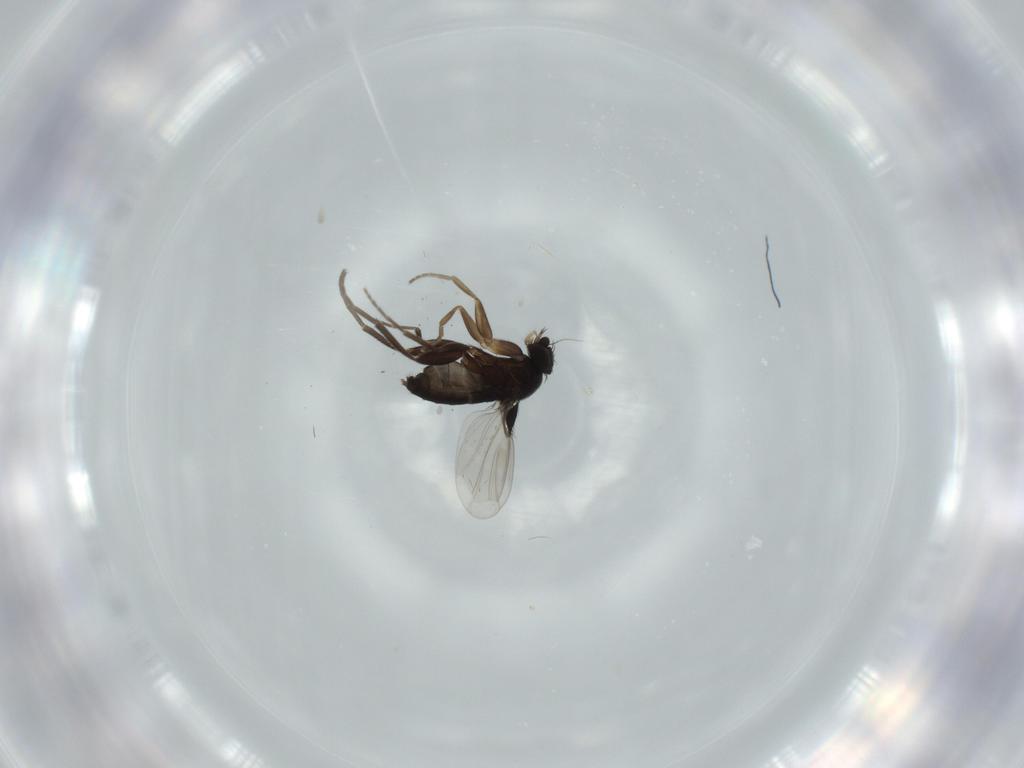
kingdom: Animalia
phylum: Arthropoda
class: Insecta
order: Diptera
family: Phoridae
